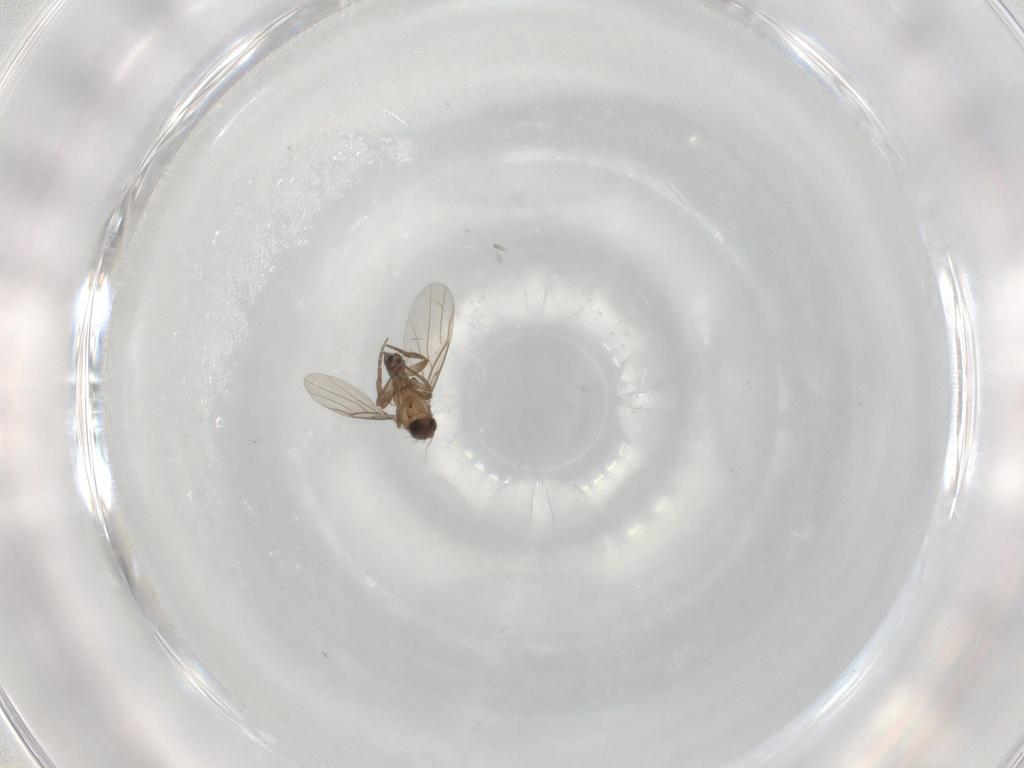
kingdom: Animalia
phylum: Arthropoda
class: Insecta
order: Diptera
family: Phoridae
